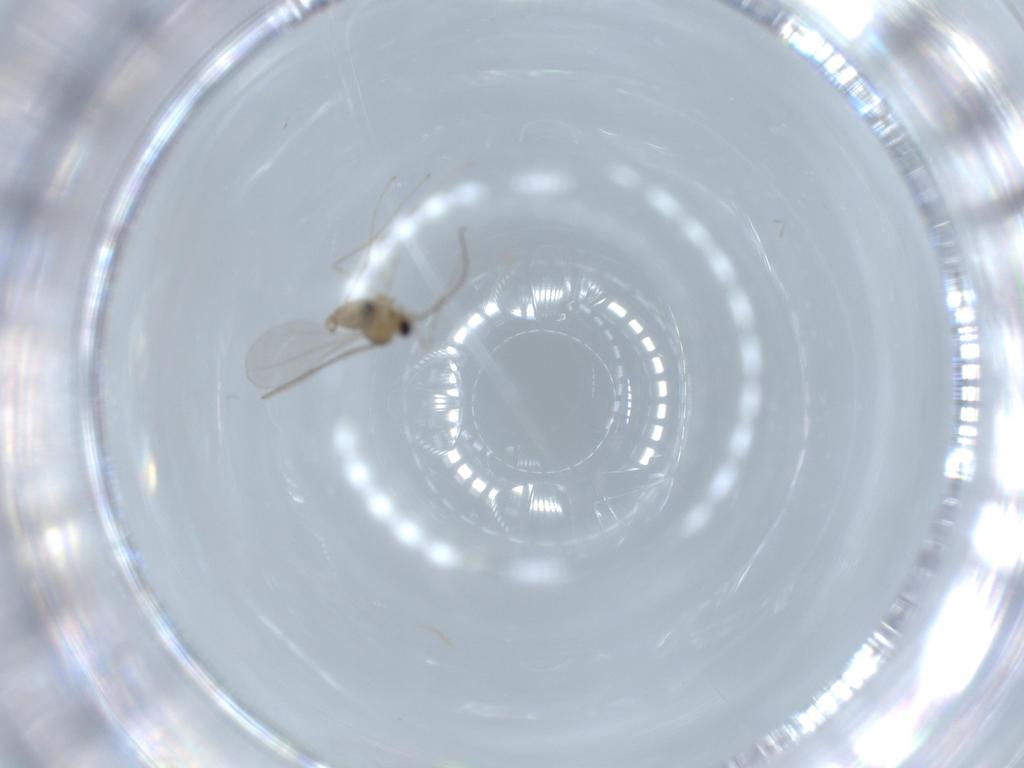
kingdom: Animalia
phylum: Arthropoda
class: Insecta
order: Diptera
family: Cecidomyiidae
